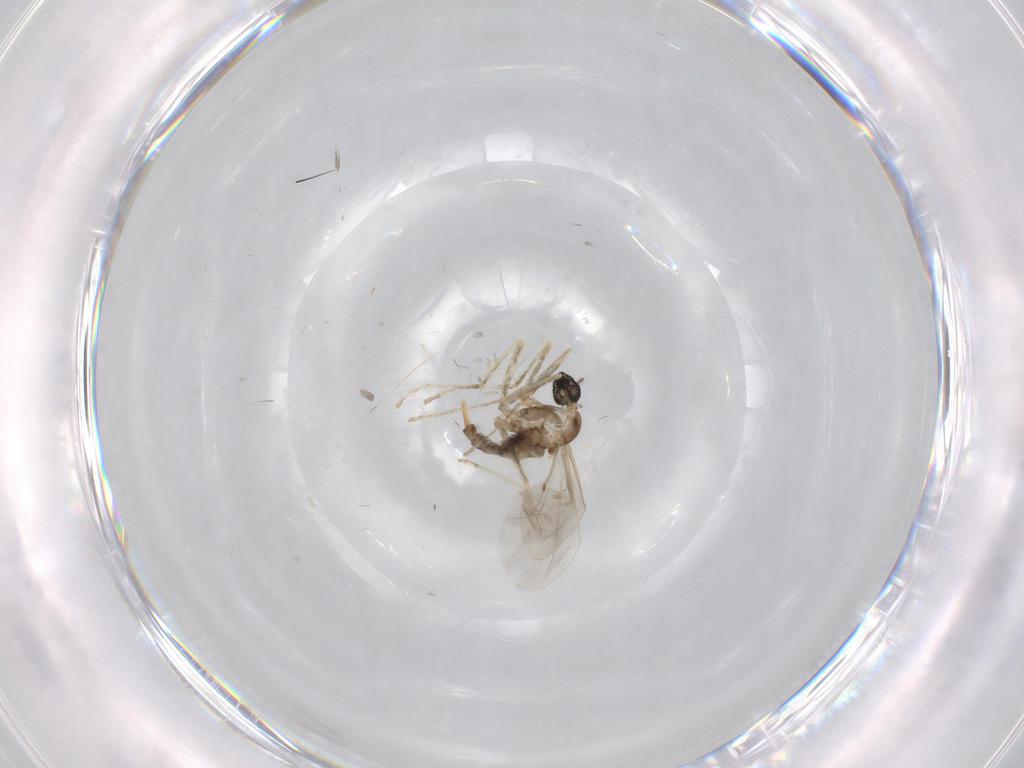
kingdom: Animalia
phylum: Arthropoda
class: Insecta
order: Diptera
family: Cecidomyiidae
